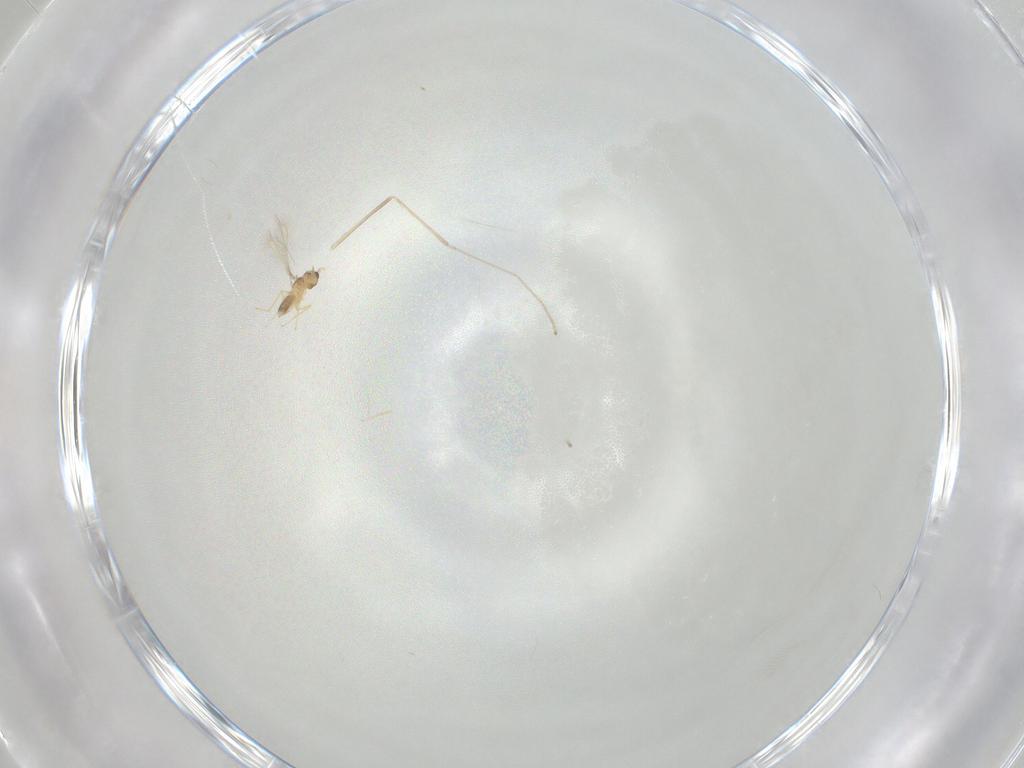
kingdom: Animalia
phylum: Arthropoda
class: Insecta
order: Hymenoptera
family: Mymaridae
